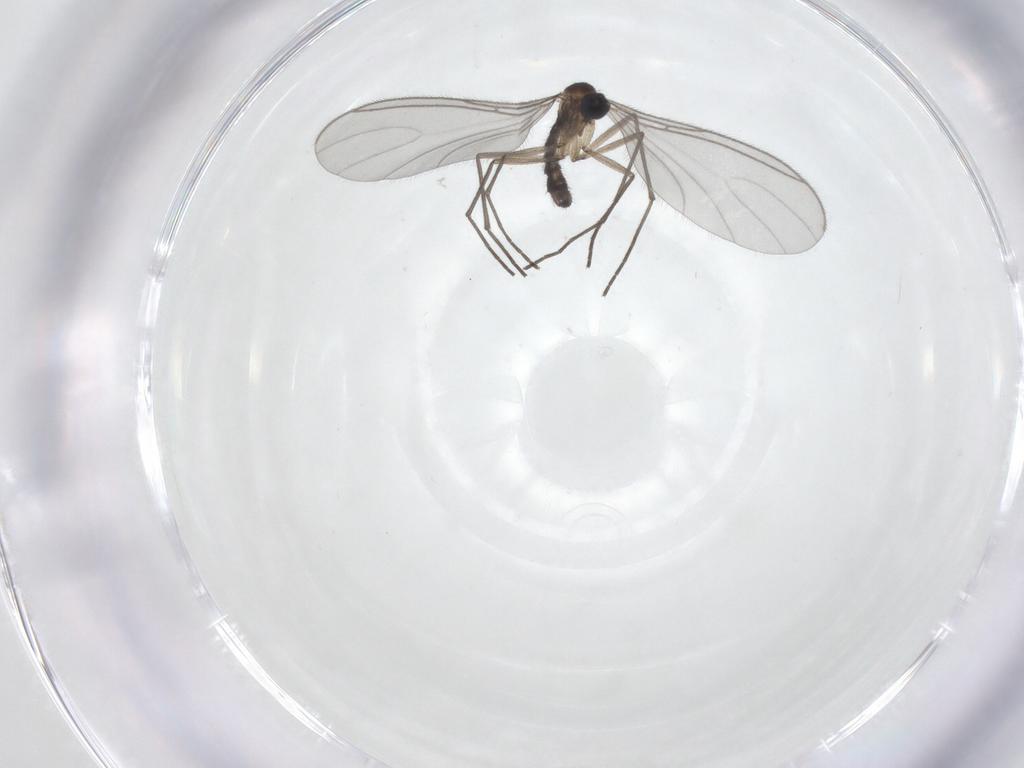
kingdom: Animalia
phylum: Arthropoda
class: Insecta
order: Diptera
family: Sciaridae
